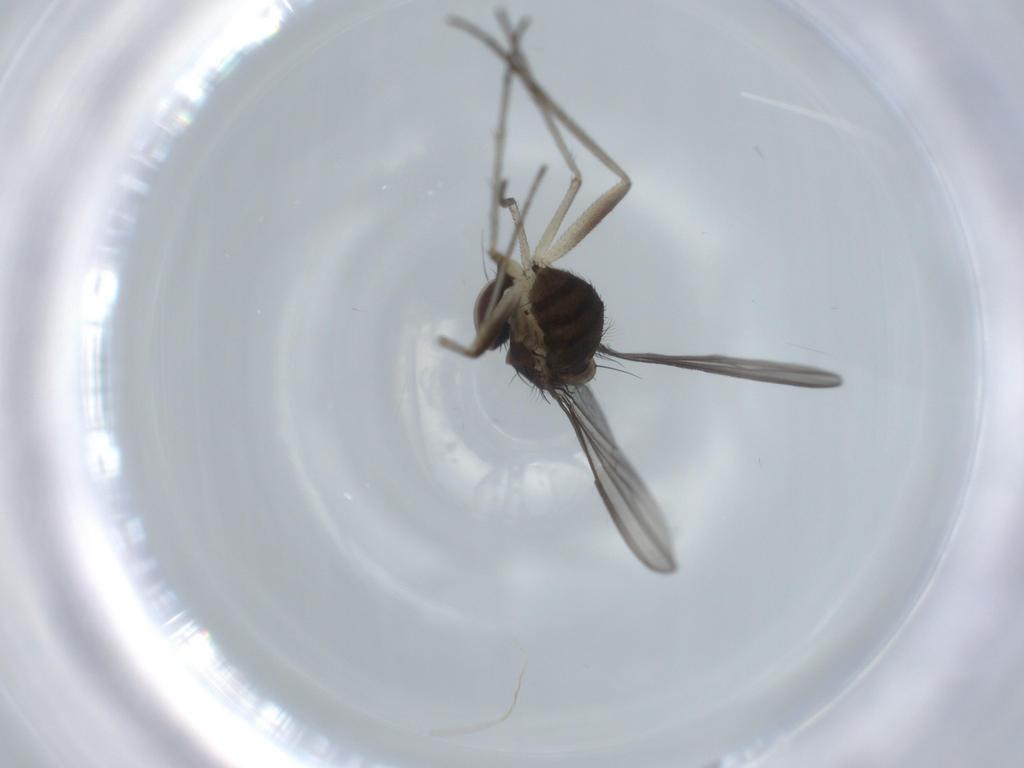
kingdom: Animalia
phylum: Arthropoda
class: Insecta
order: Diptera
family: Dolichopodidae
